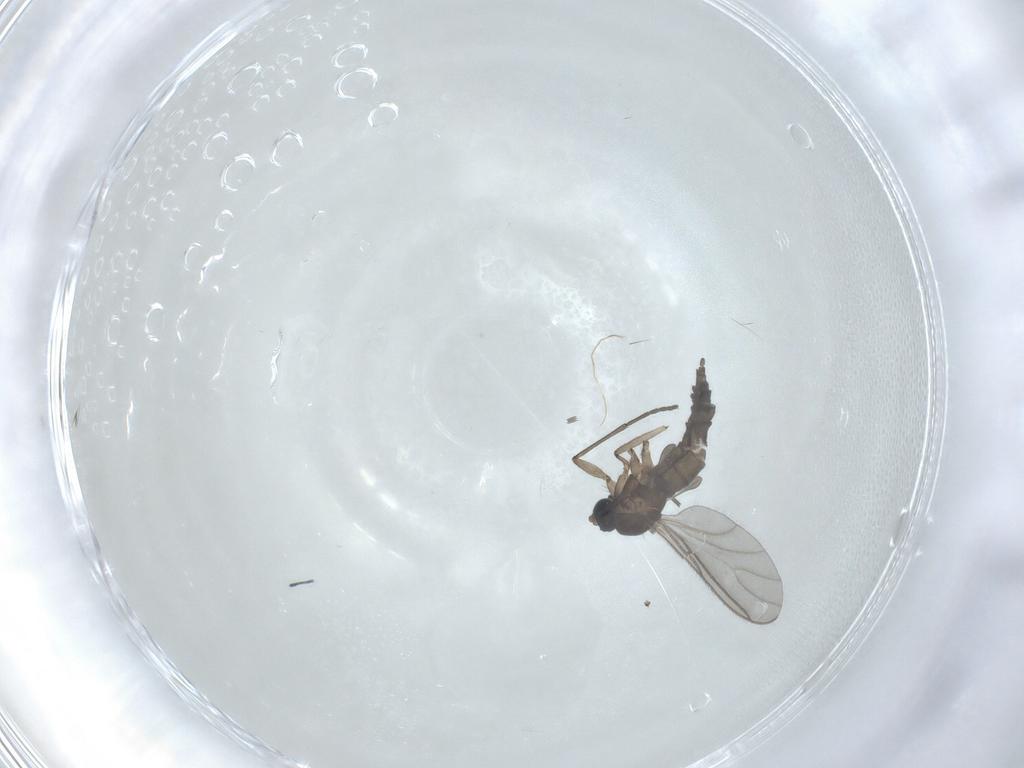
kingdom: Animalia
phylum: Arthropoda
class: Insecta
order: Diptera
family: Sciaridae
